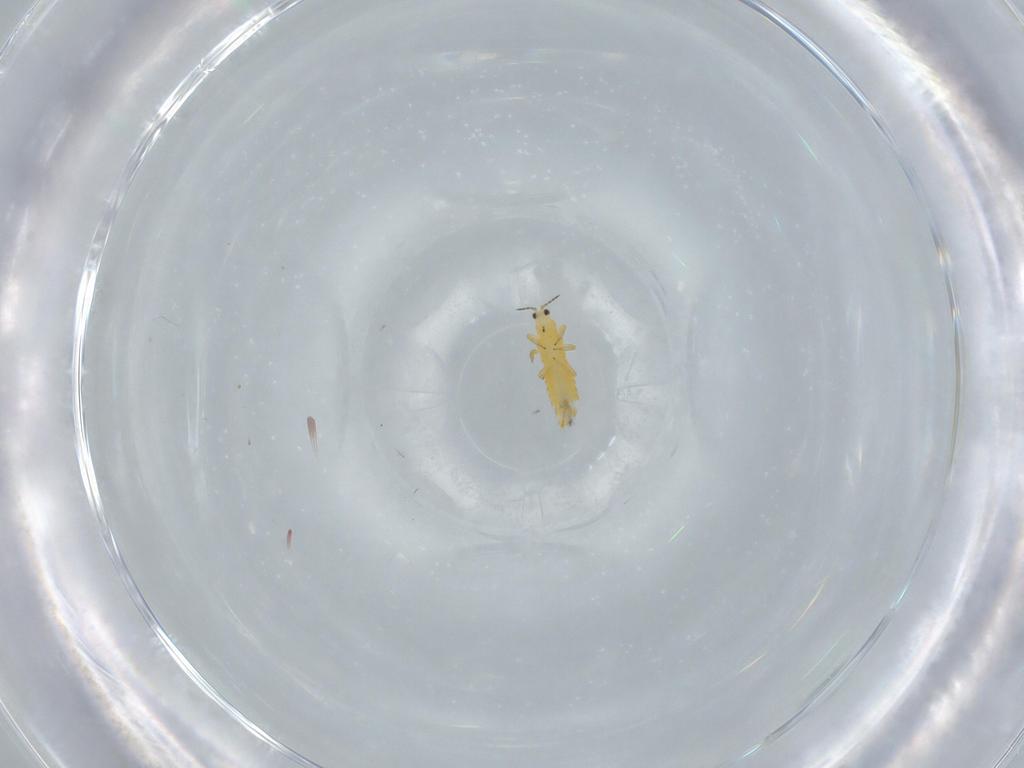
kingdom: Animalia
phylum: Arthropoda
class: Insecta
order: Thysanoptera
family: Thripidae
